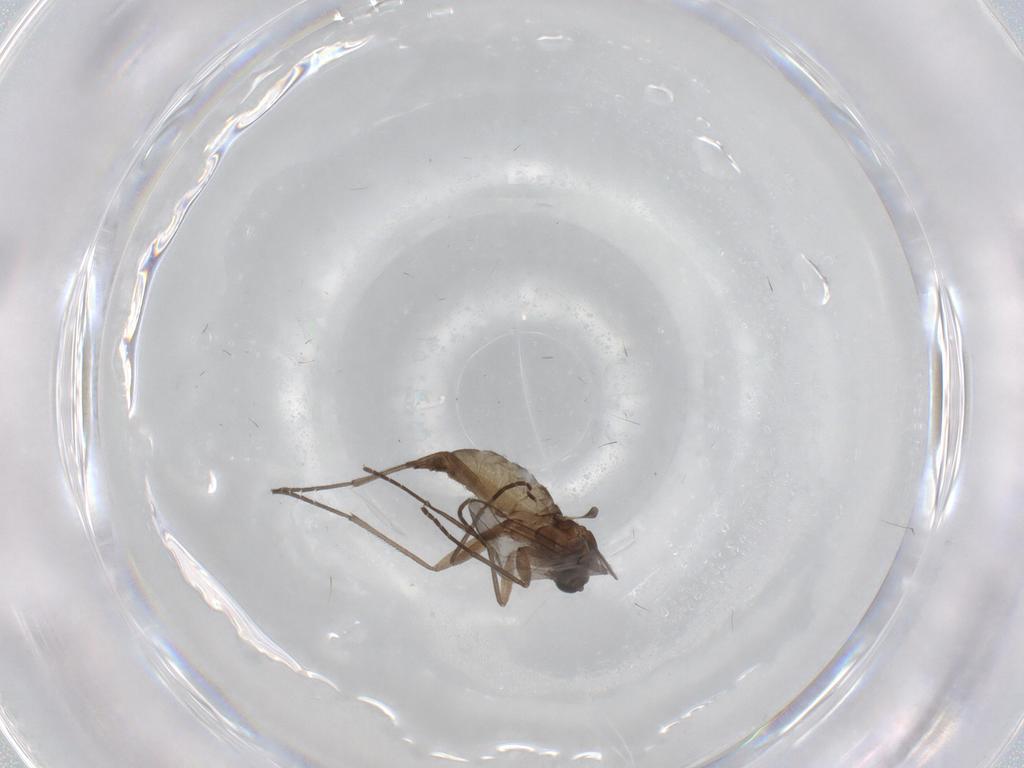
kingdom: Animalia
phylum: Arthropoda
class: Insecta
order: Diptera
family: Sciaridae
